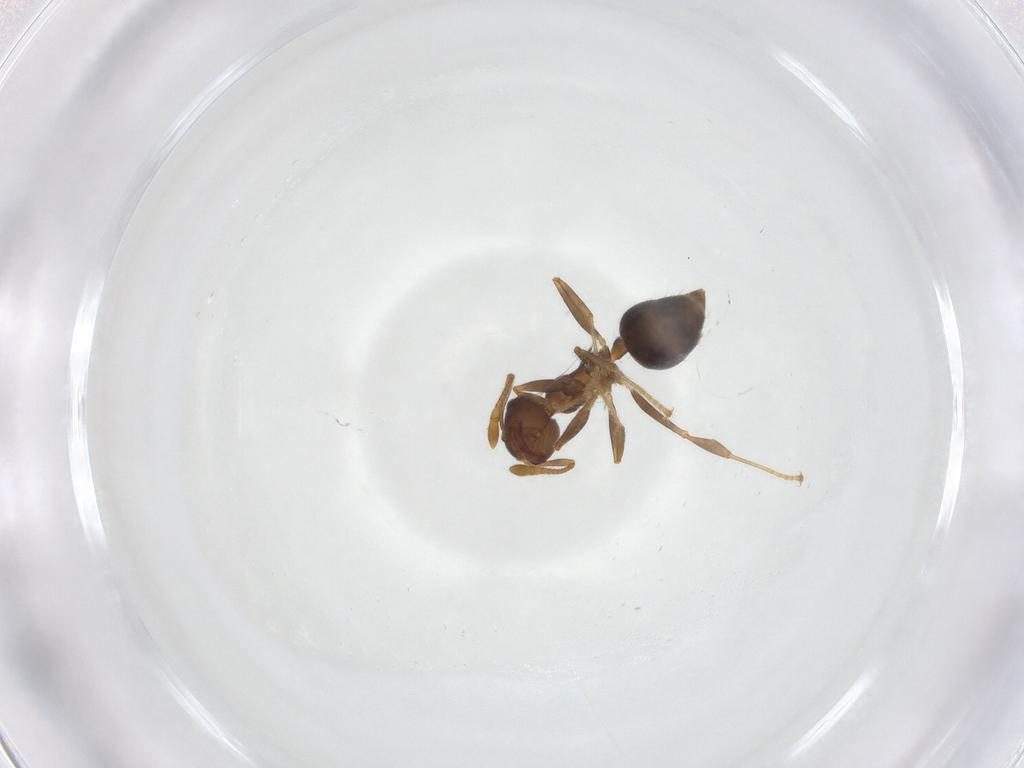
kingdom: Animalia
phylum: Arthropoda
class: Insecta
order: Hymenoptera
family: Formicidae
